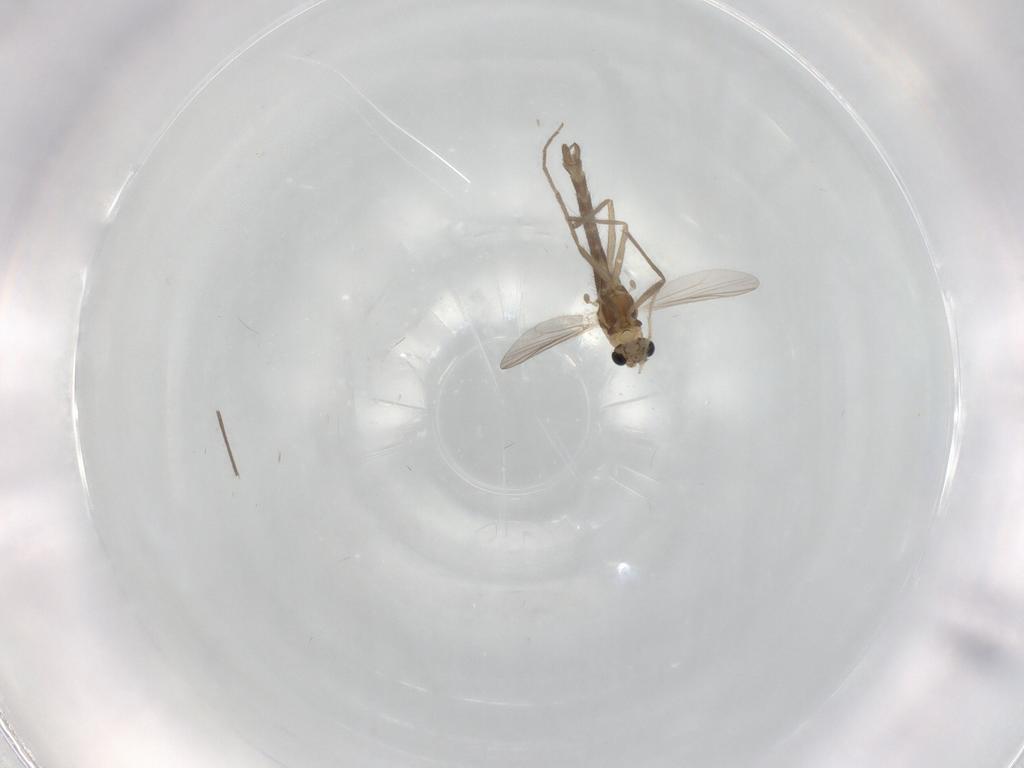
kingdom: Animalia
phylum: Arthropoda
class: Insecta
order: Diptera
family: Chironomidae
